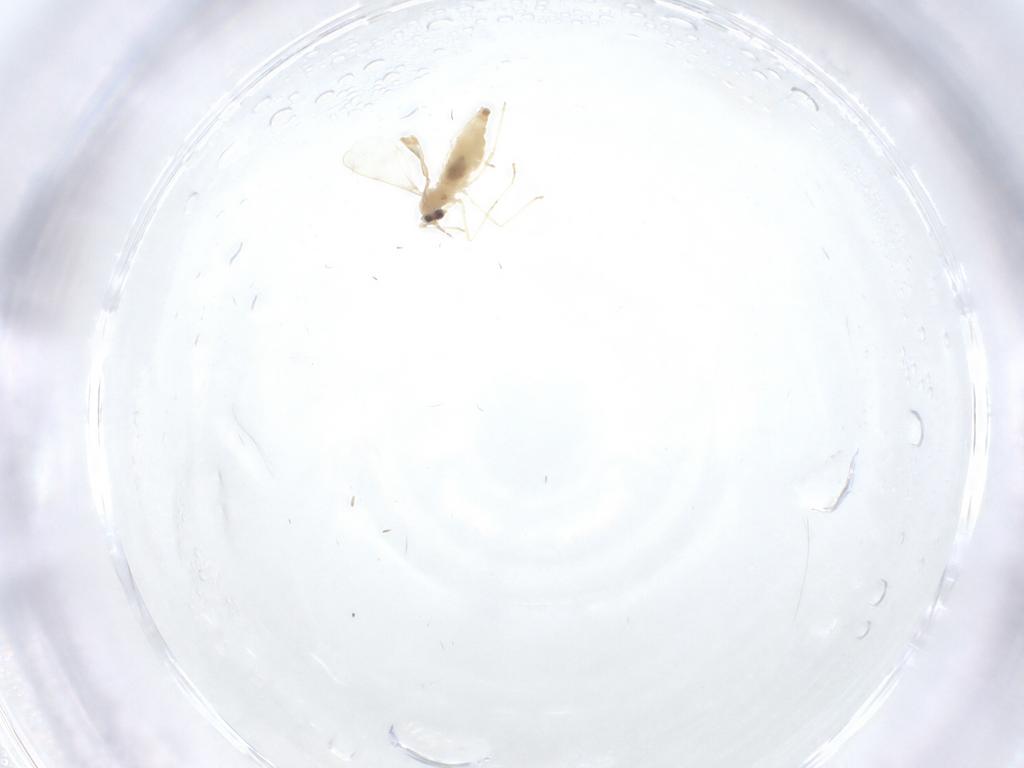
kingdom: Animalia
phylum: Arthropoda
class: Insecta
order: Diptera
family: Cecidomyiidae
